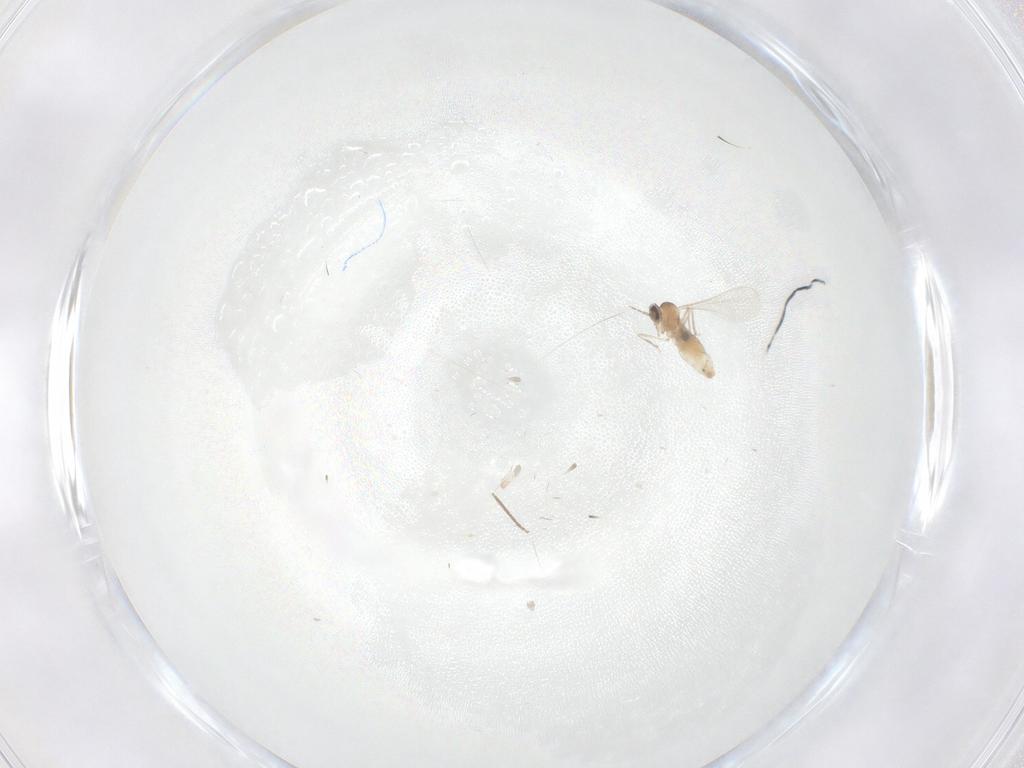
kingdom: Animalia
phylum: Arthropoda
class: Insecta
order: Diptera
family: Cecidomyiidae
